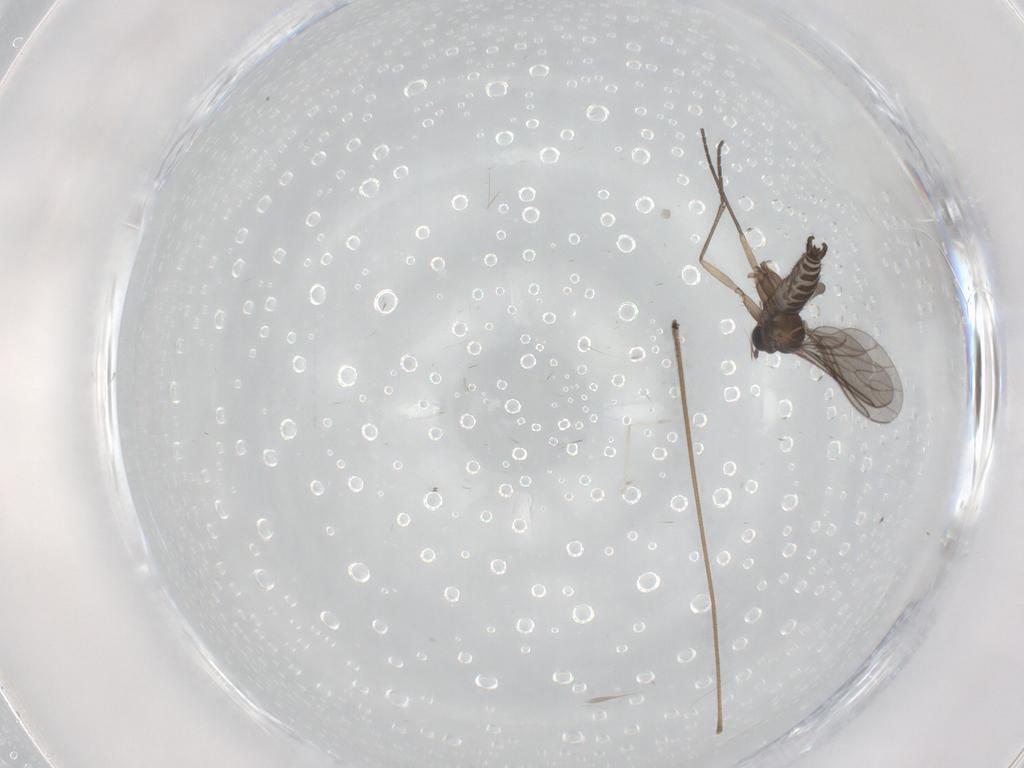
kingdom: Animalia
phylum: Arthropoda
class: Insecta
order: Diptera
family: Sciaridae
